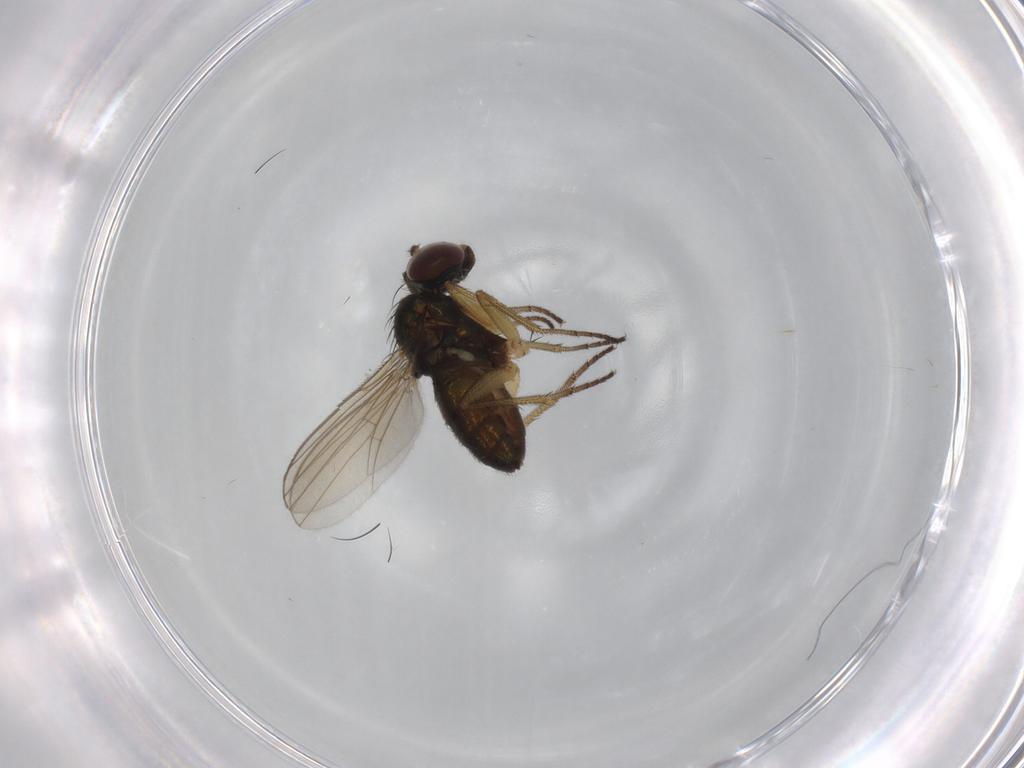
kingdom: Animalia
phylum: Arthropoda
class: Insecta
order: Diptera
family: Dolichopodidae
